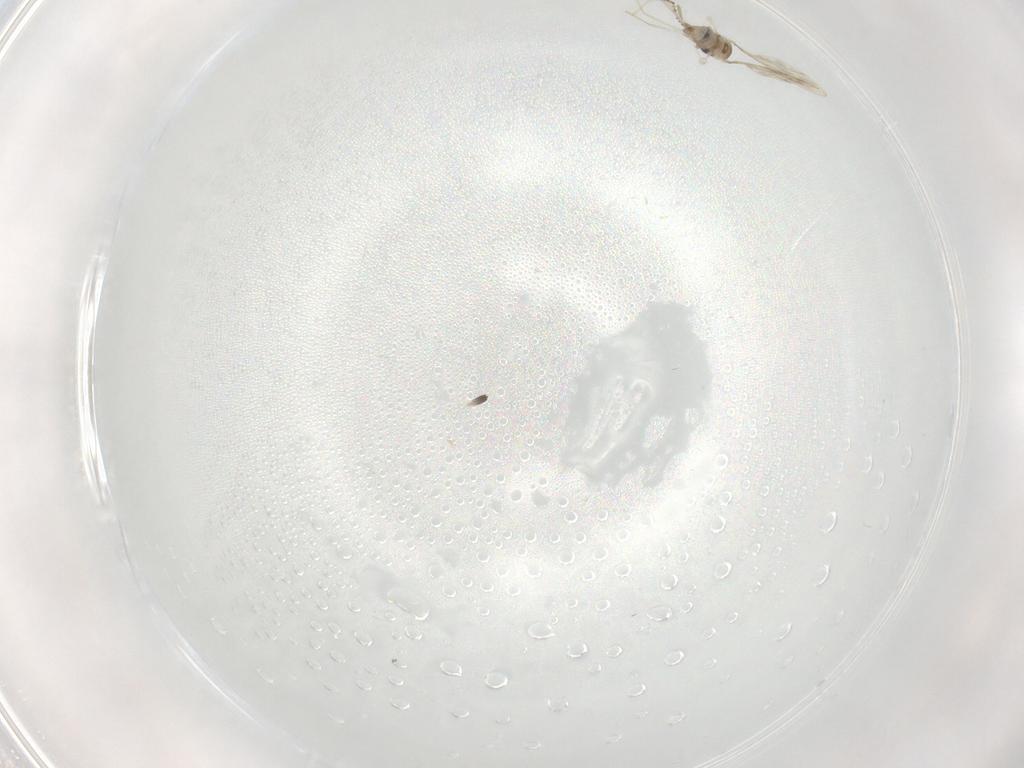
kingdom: Animalia
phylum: Arthropoda
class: Insecta
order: Diptera
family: Cecidomyiidae
